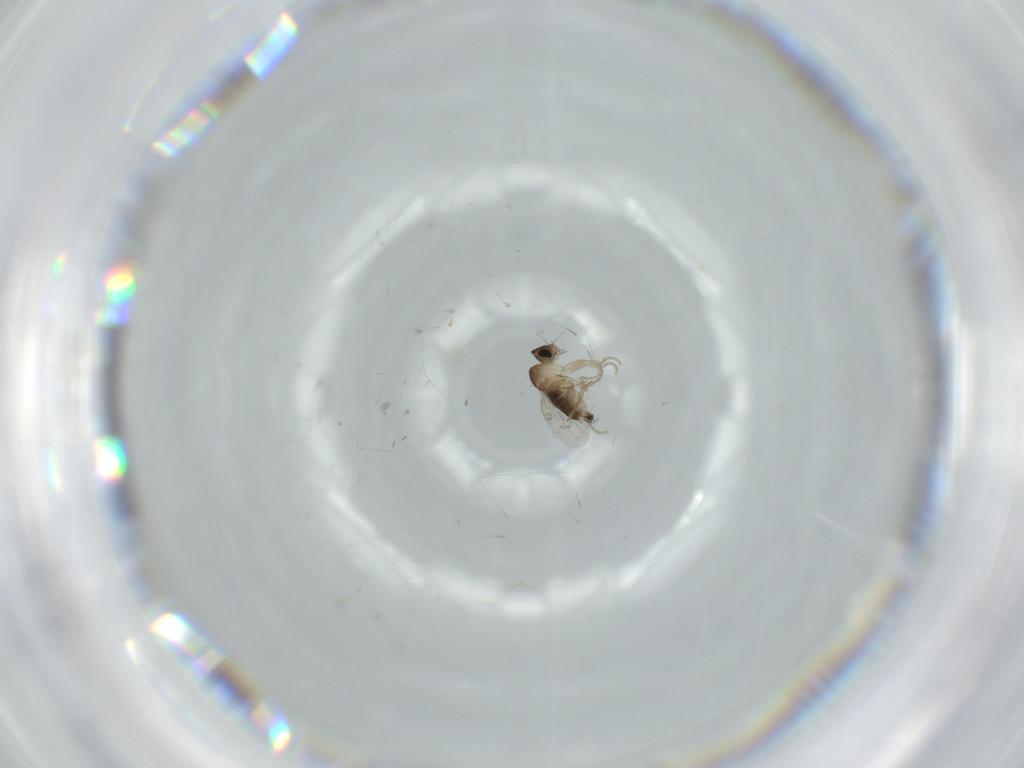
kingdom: Animalia
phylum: Arthropoda
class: Insecta
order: Diptera
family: Phoridae
